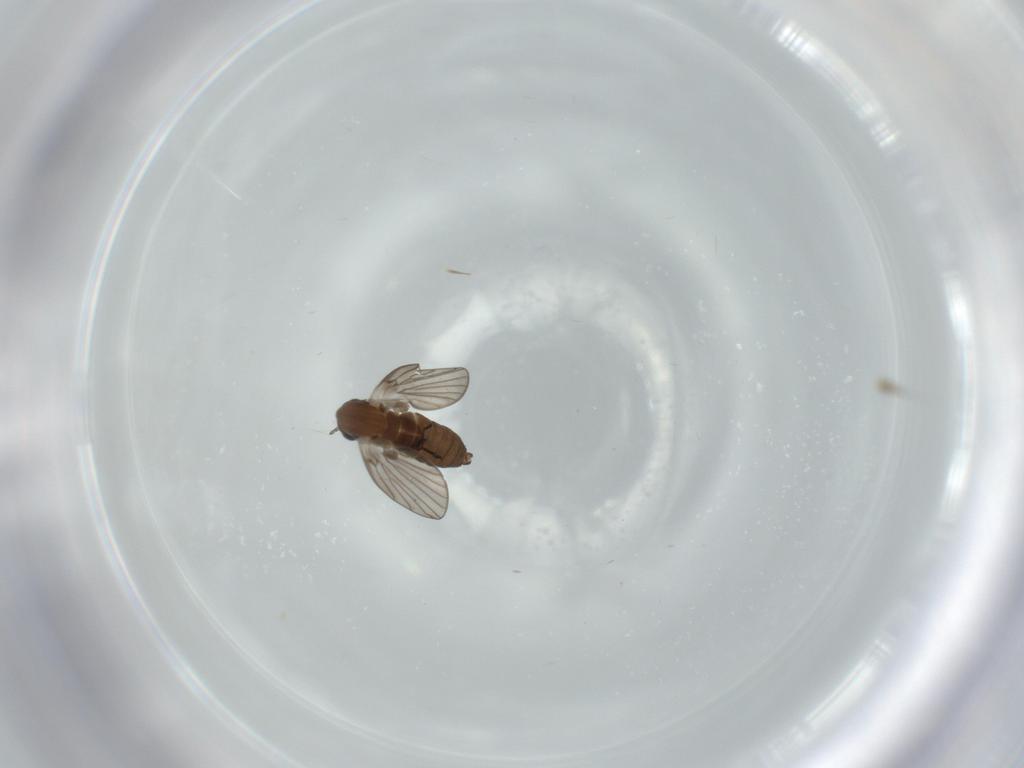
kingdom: Animalia
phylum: Arthropoda
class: Insecta
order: Diptera
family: Psychodidae
